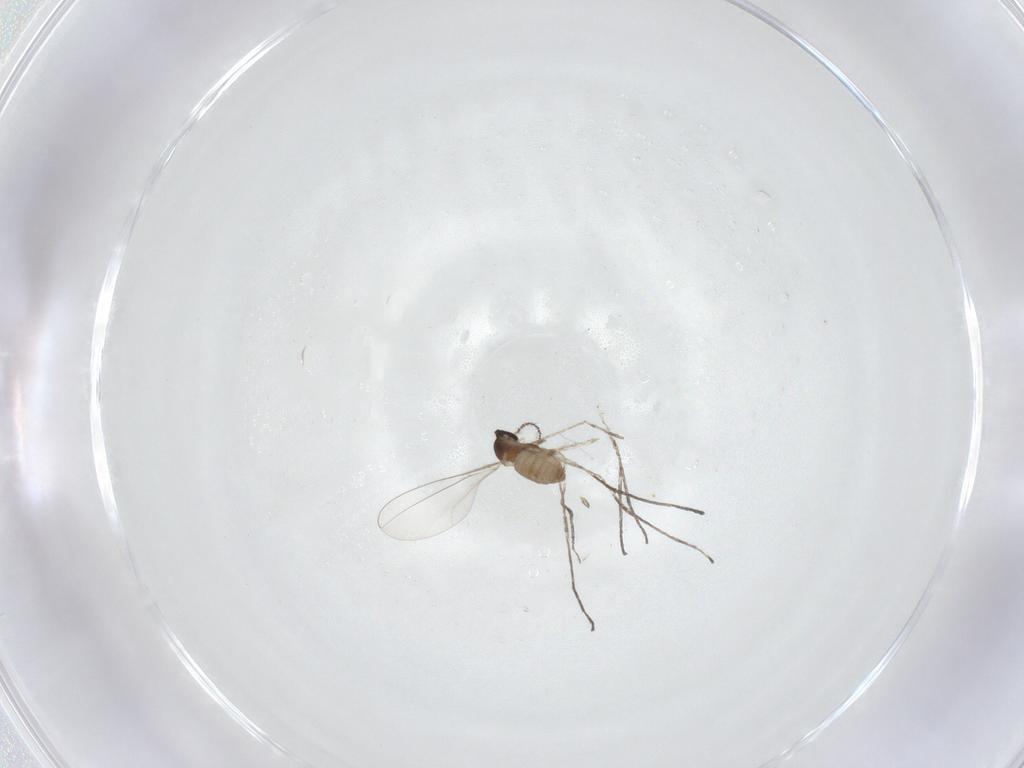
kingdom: Animalia
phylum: Arthropoda
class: Insecta
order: Diptera
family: Cecidomyiidae
